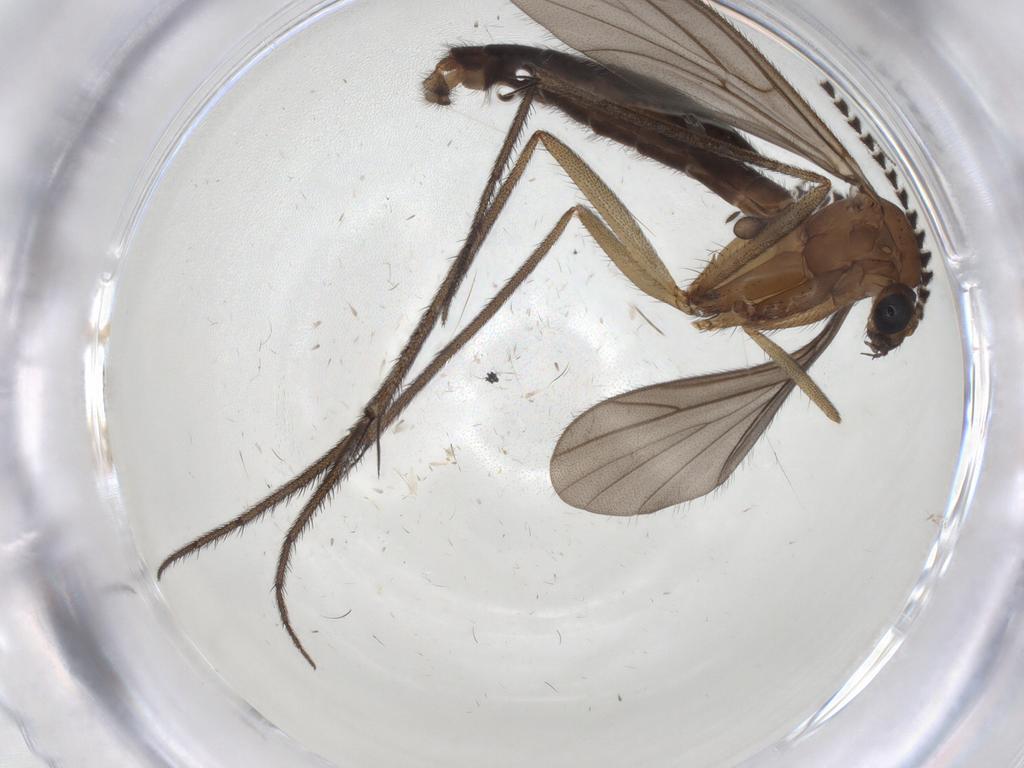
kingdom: Animalia
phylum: Arthropoda
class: Insecta
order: Diptera
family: Ditomyiidae
